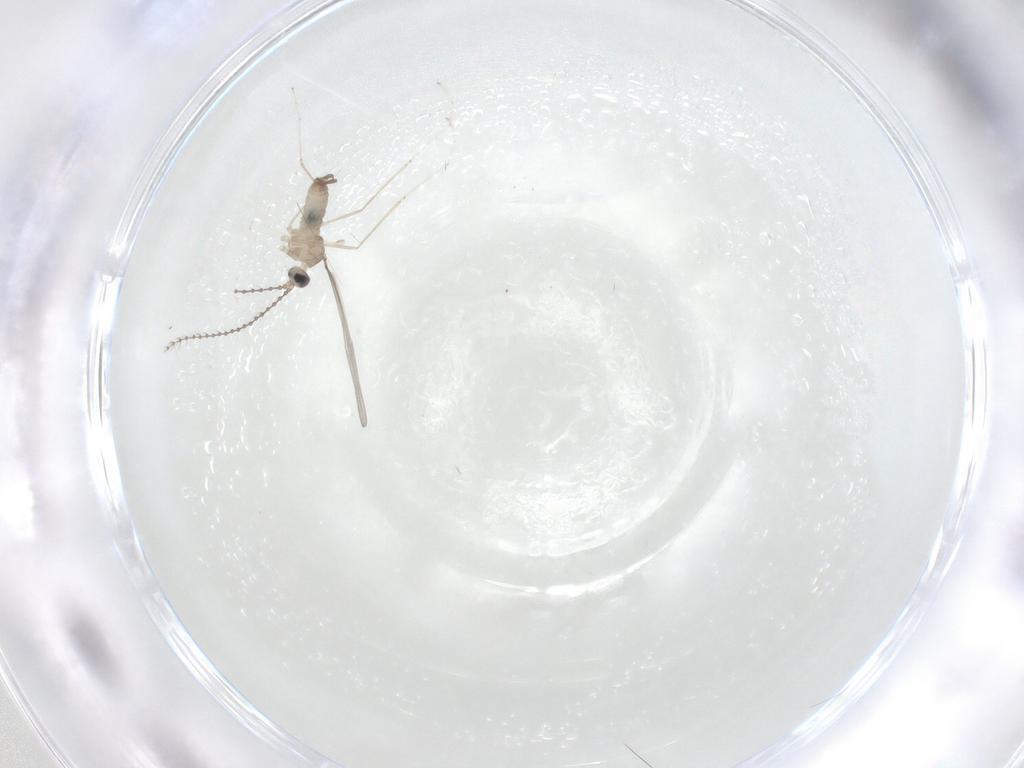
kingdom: Animalia
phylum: Arthropoda
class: Insecta
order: Diptera
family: Cecidomyiidae
